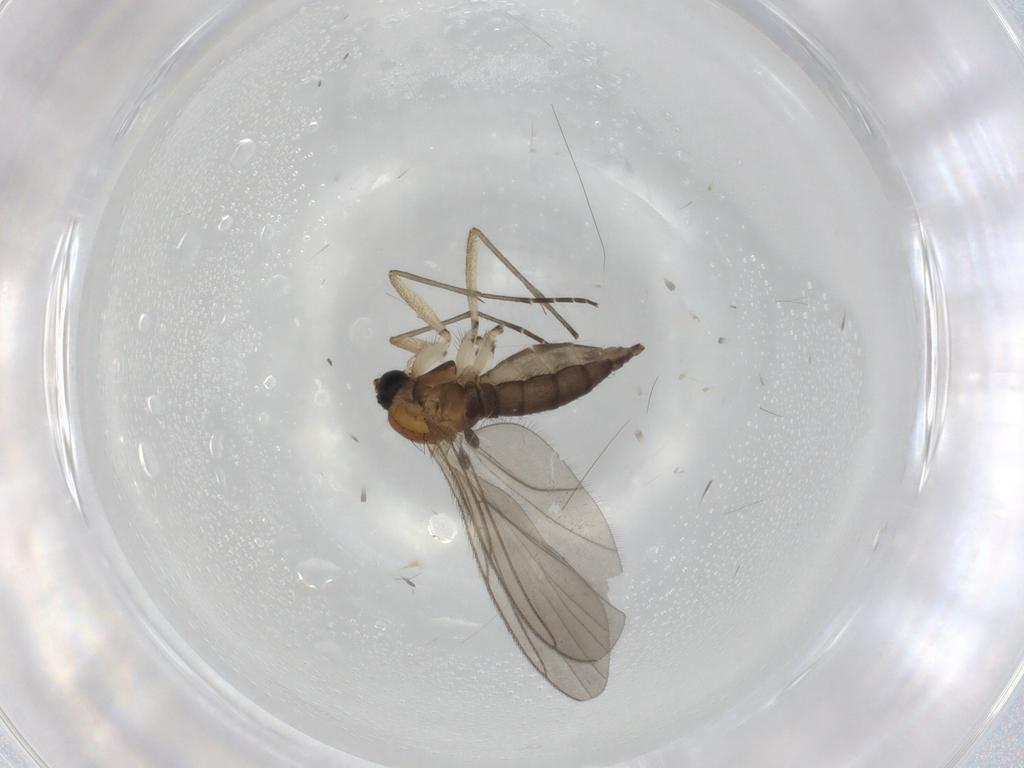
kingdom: Animalia
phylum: Arthropoda
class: Insecta
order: Diptera
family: Sciaridae
